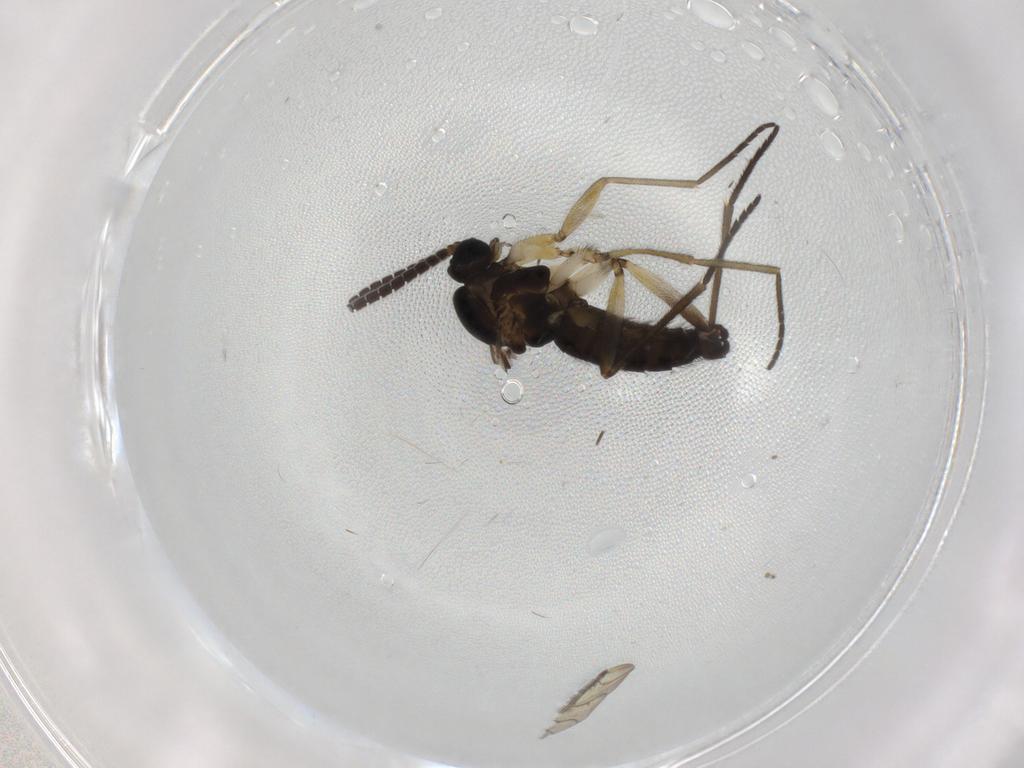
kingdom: Animalia
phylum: Arthropoda
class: Insecta
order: Diptera
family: Sciaridae
